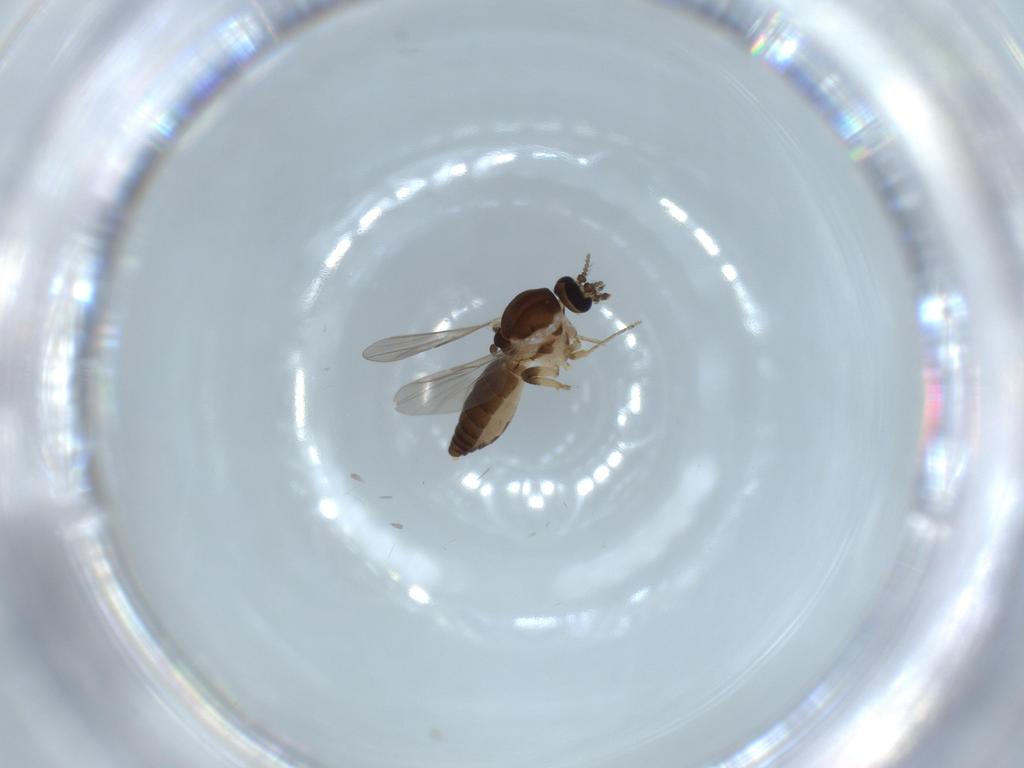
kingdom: Animalia
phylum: Arthropoda
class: Insecta
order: Diptera
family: Ceratopogonidae
